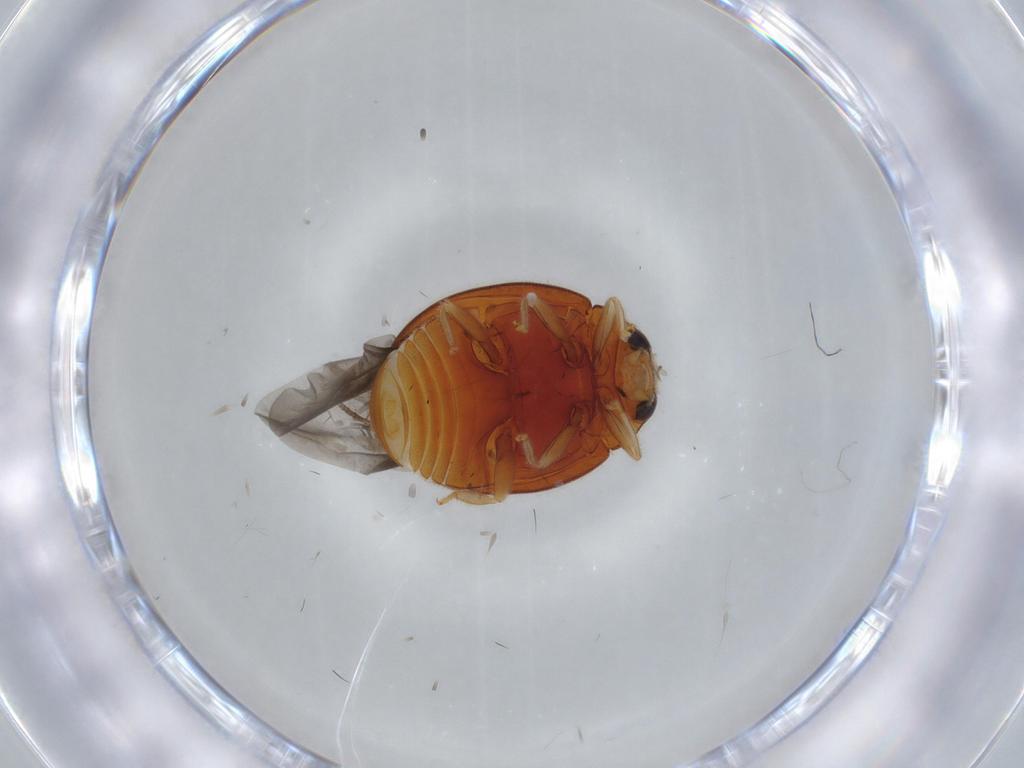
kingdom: Animalia
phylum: Arthropoda
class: Insecta
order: Coleoptera
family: Coccinellidae
